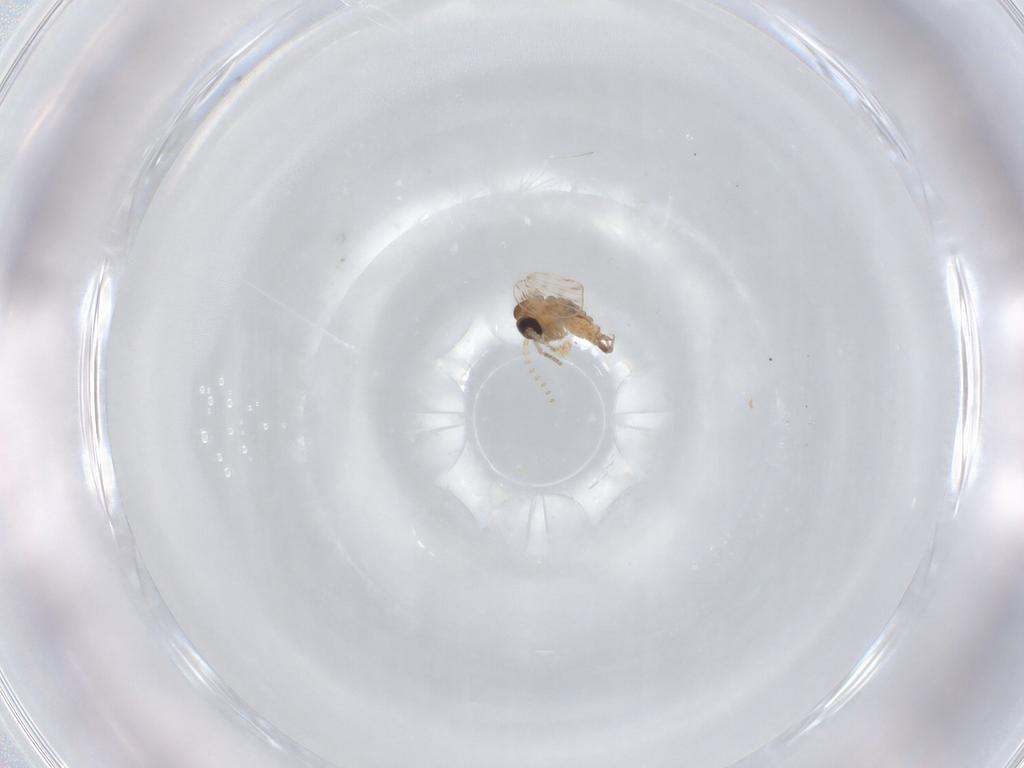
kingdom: Animalia
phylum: Arthropoda
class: Insecta
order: Diptera
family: Psychodidae
